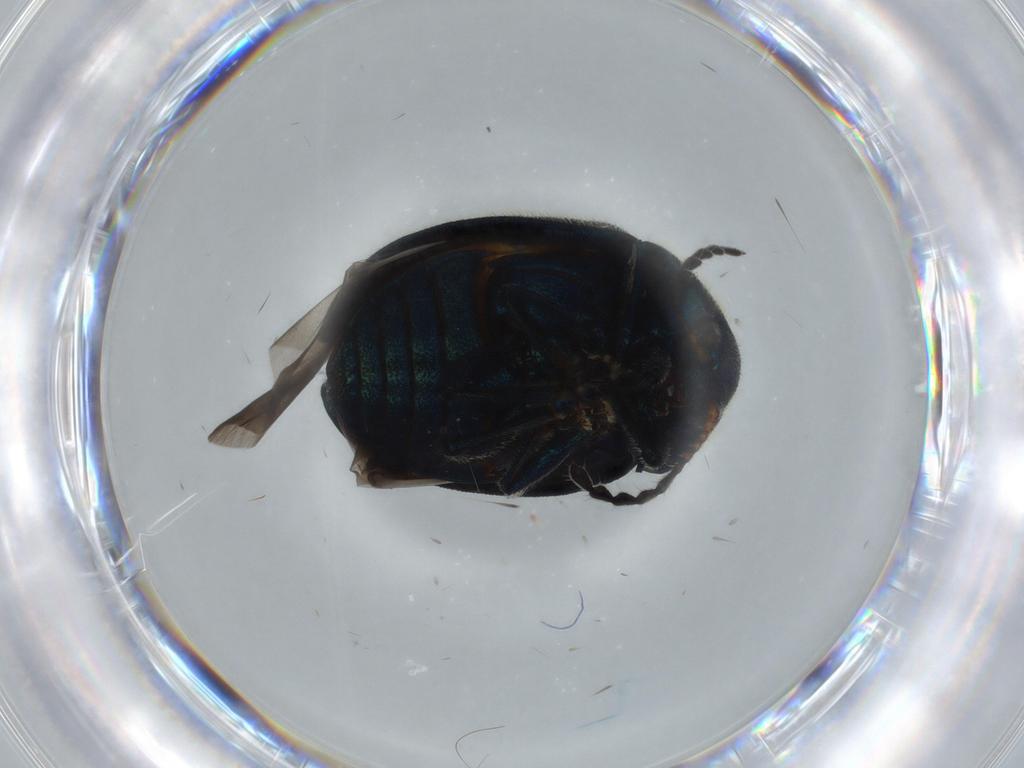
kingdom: Animalia
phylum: Arthropoda
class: Insecta
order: Coleoptera
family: Chrysomelidae
